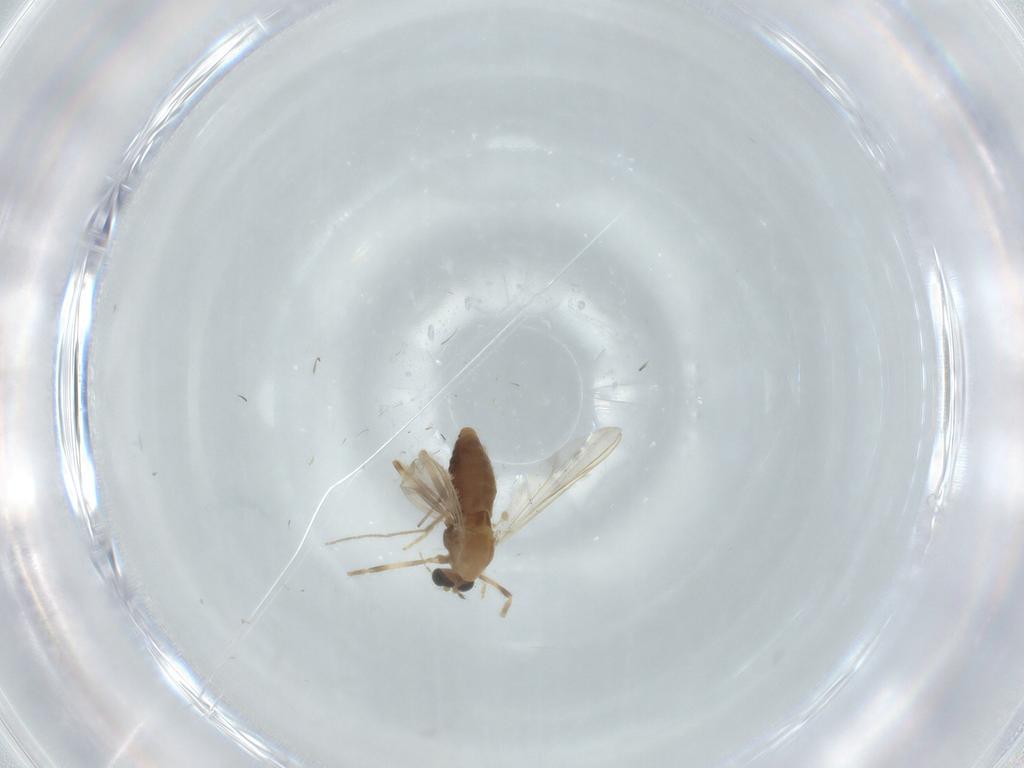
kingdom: Animalia
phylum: Arthropoda
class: Insecta
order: Diptera
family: Chironomidae
